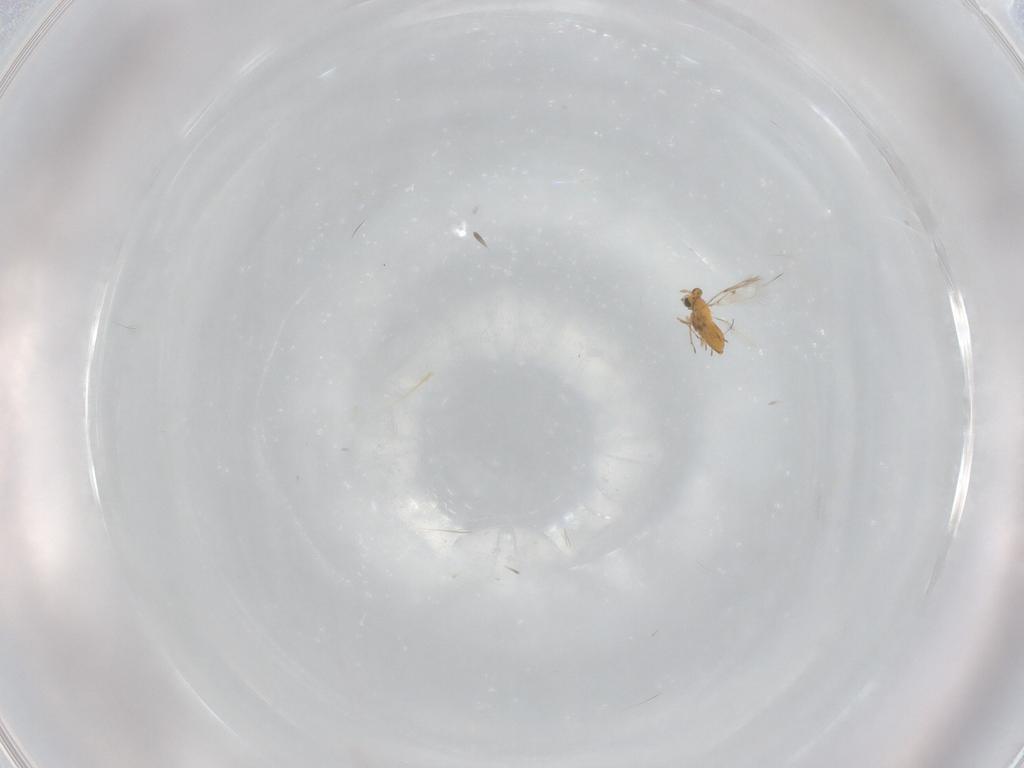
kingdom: Animalia
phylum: Arthropoda
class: Insecta
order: Hymenoptera
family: Trichogrammatidae
